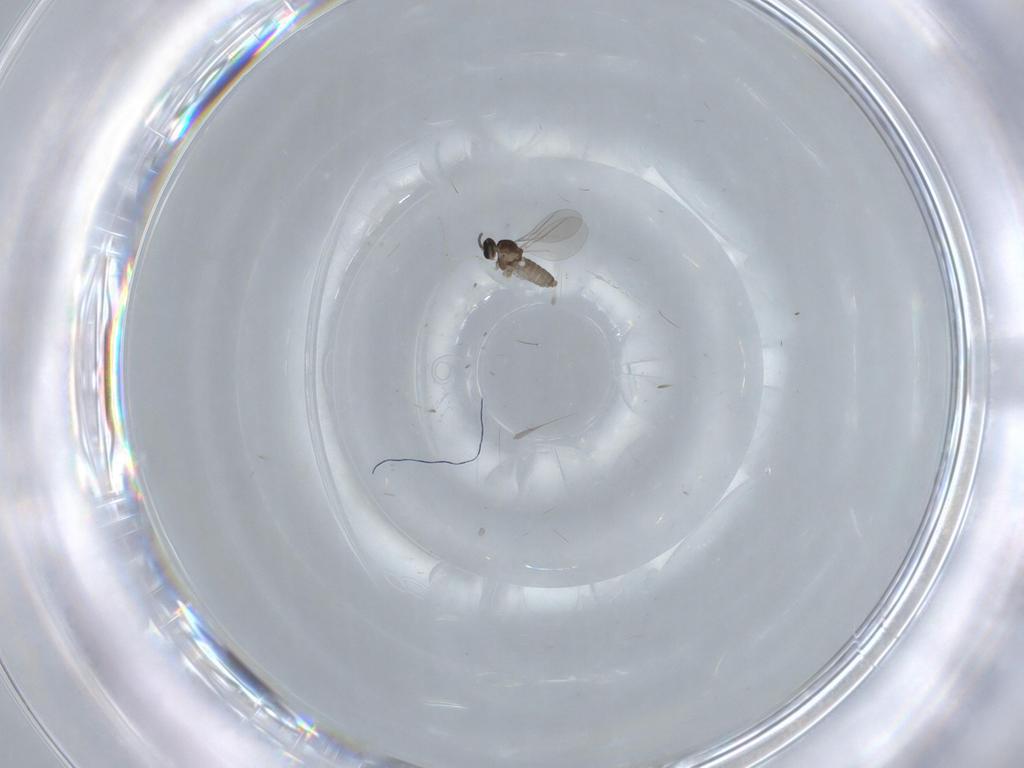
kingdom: Animalia
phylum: Arthropoda
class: Insecta
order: Diptera
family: Cecidomyiidae
